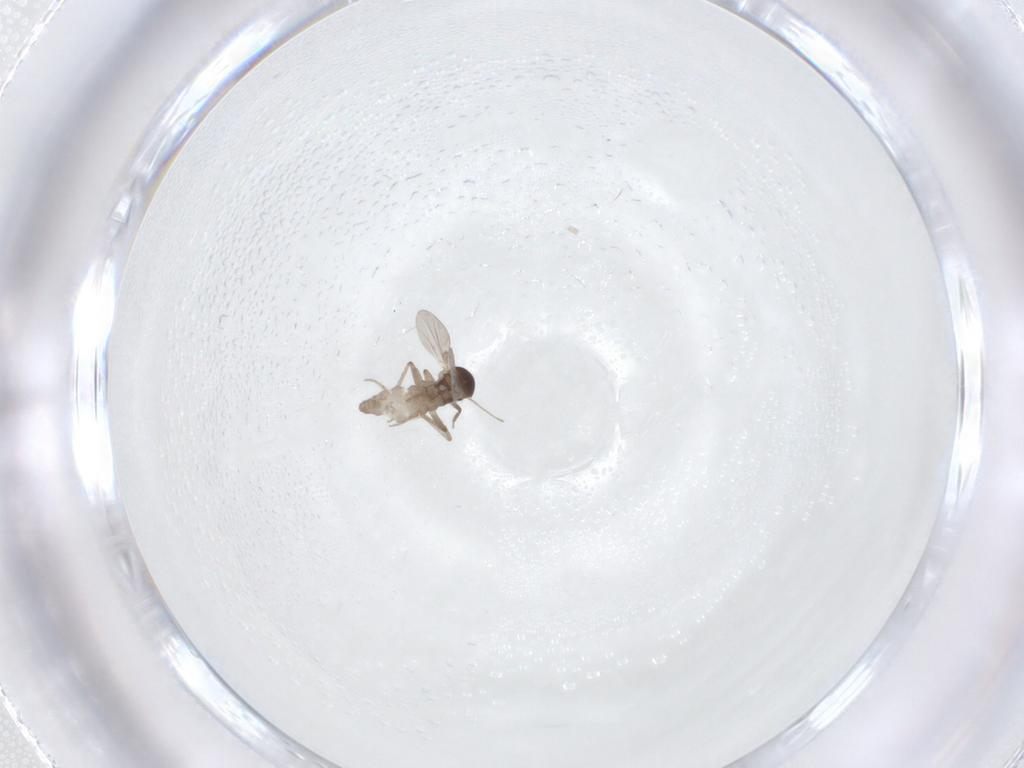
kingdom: Animalia
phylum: Arthropoda
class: Insecta
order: Diptera
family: Ceratopogonidae
